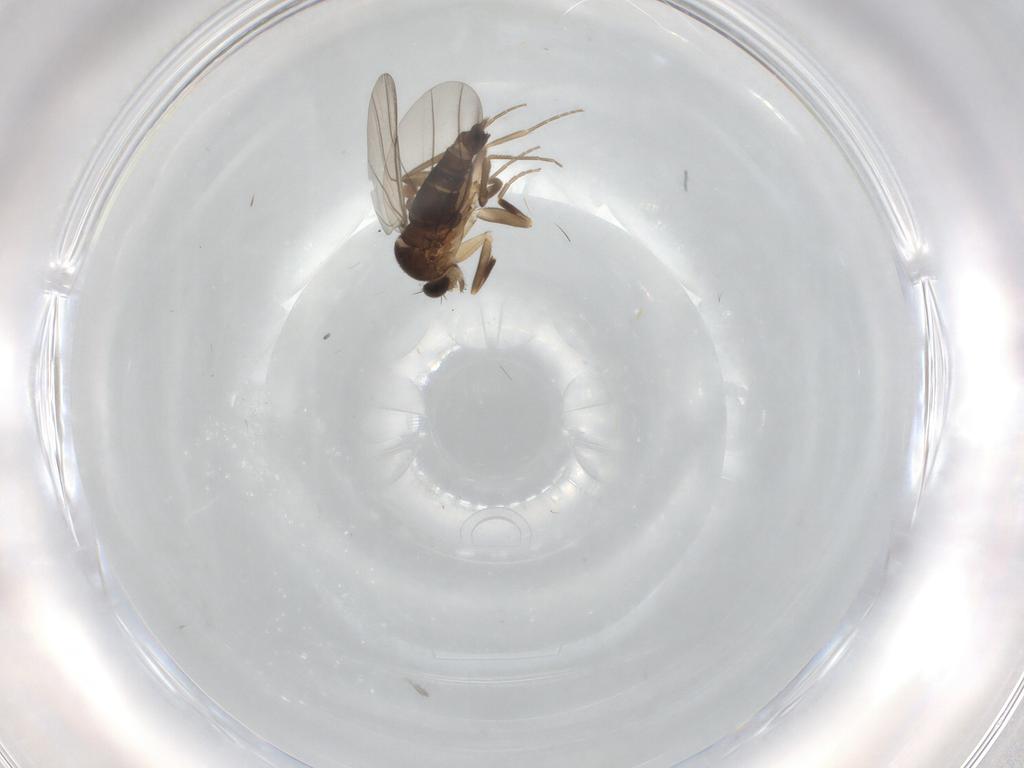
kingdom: Animalia
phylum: Arthropoda
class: Insecta
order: Diptera
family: Phoridae
